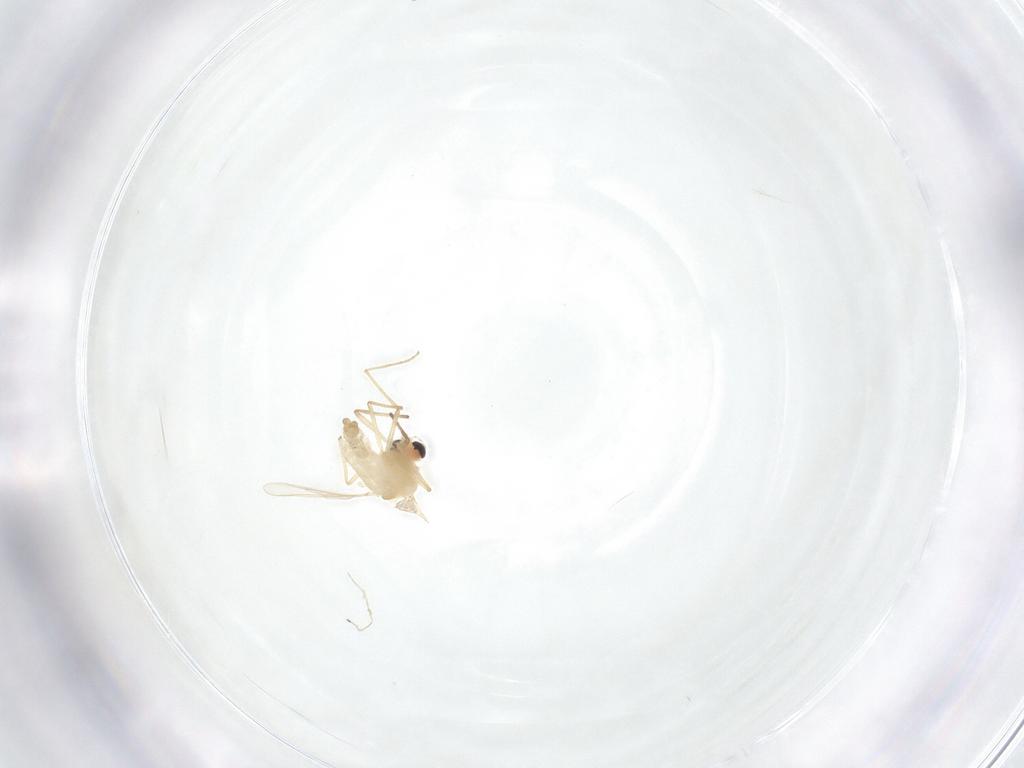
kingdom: Animalia
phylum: Arthropoda
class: Insecta
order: Diptera
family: Chironomidae
